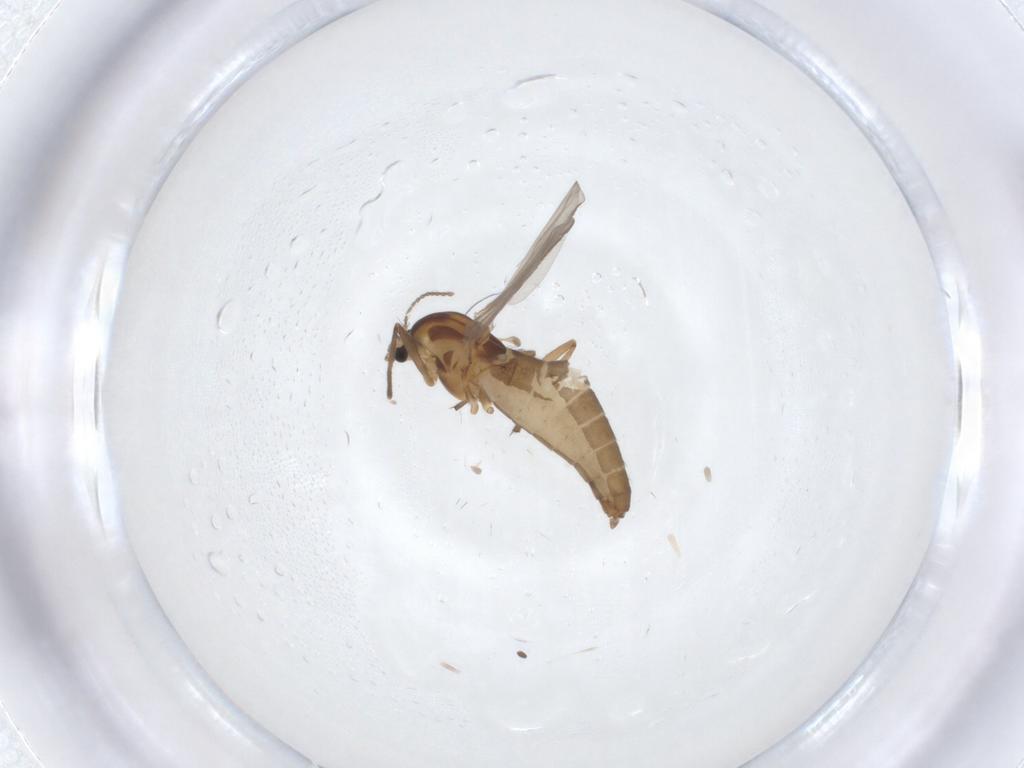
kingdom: Animalia
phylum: Arthropoda
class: Insecta
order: Diptera
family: Chironomidae
